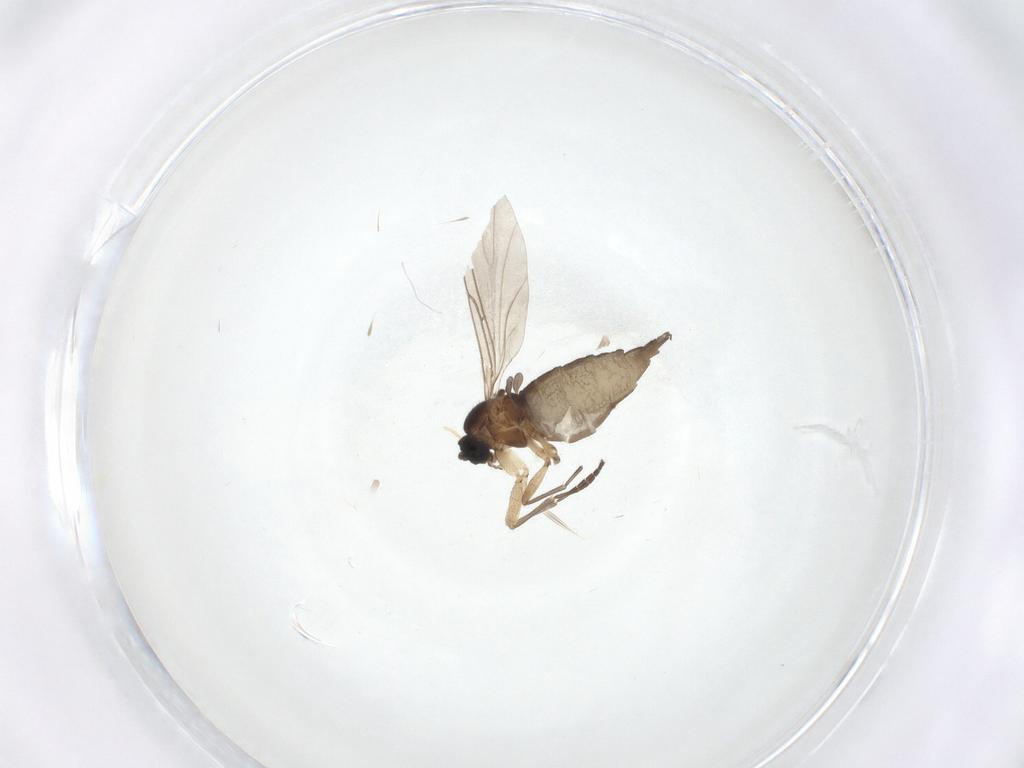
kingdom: Animalia
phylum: Arthropoda
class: Insecta
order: Diptera
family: Sciaridae
